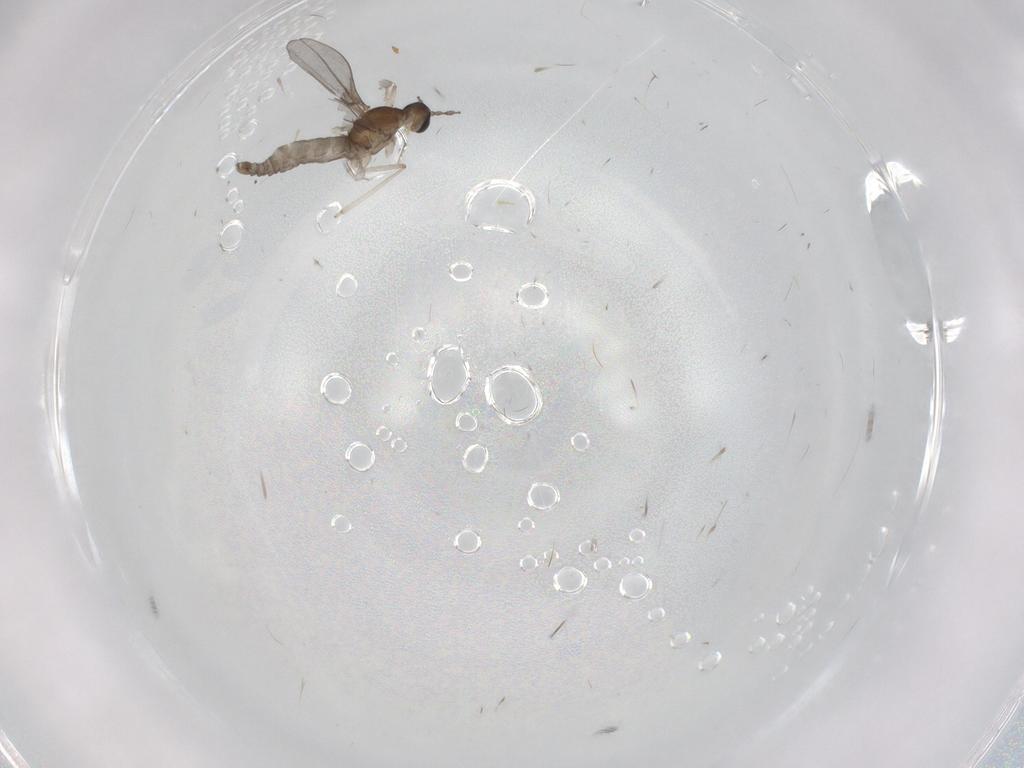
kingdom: Animalia
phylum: Arthropoda
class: Insecta
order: Diptera
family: Cecidomyiidae
